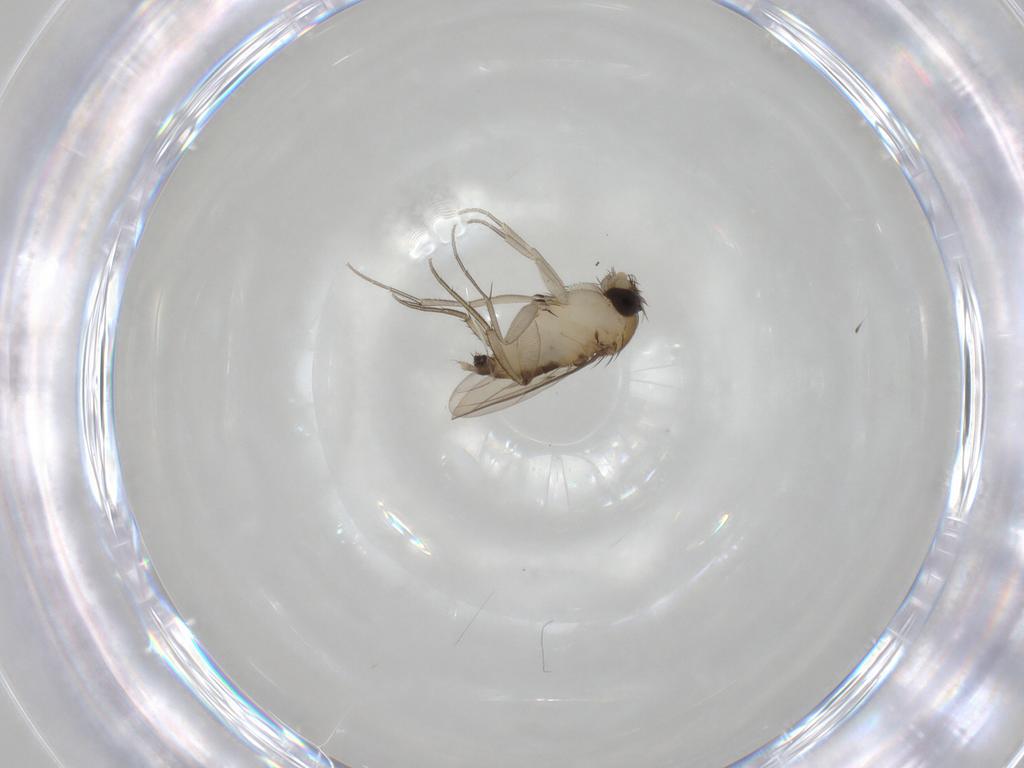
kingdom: Animalia
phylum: Arthropoda
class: Insecta
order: Diptera
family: Phoridae
